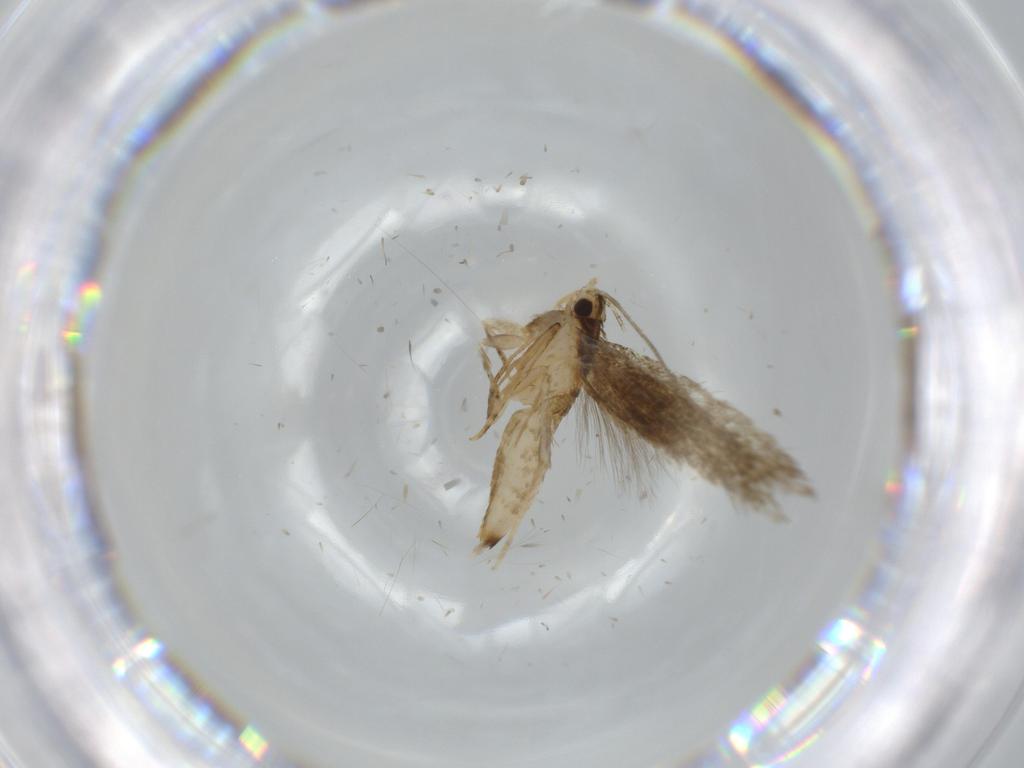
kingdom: Animalia
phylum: Arthropoda
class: Insecta
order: Lepidoptera
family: Tineidae
